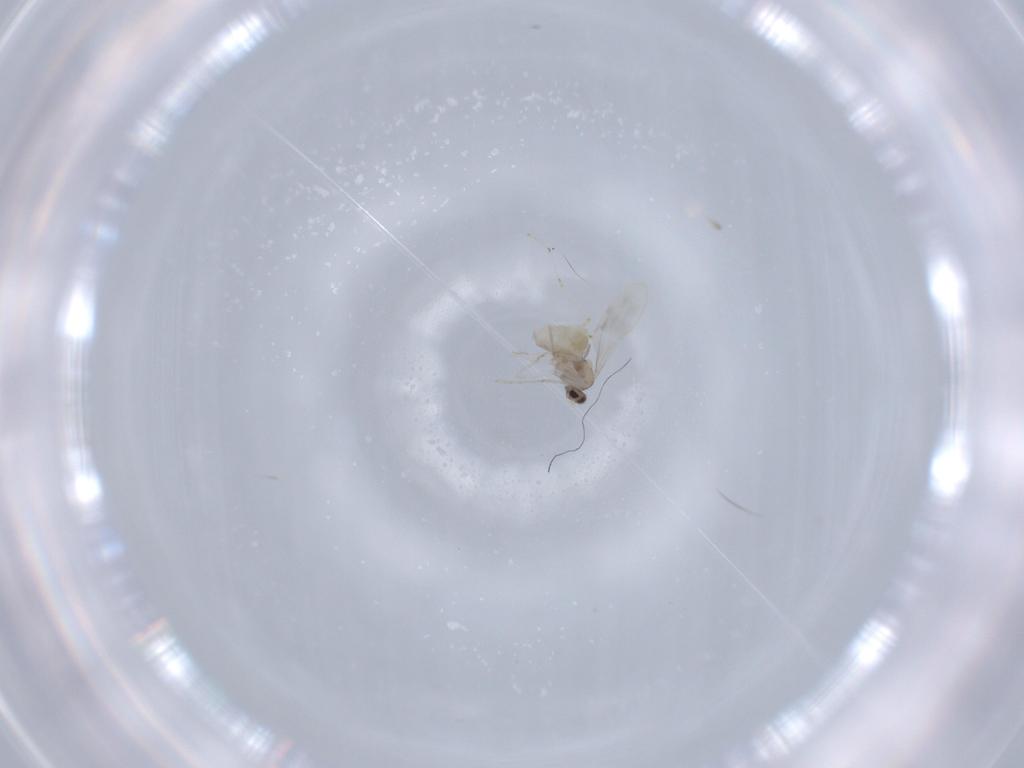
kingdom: Animalia
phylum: Arthropoda
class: Insecta
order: Diptera
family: Cecidomyiidae
